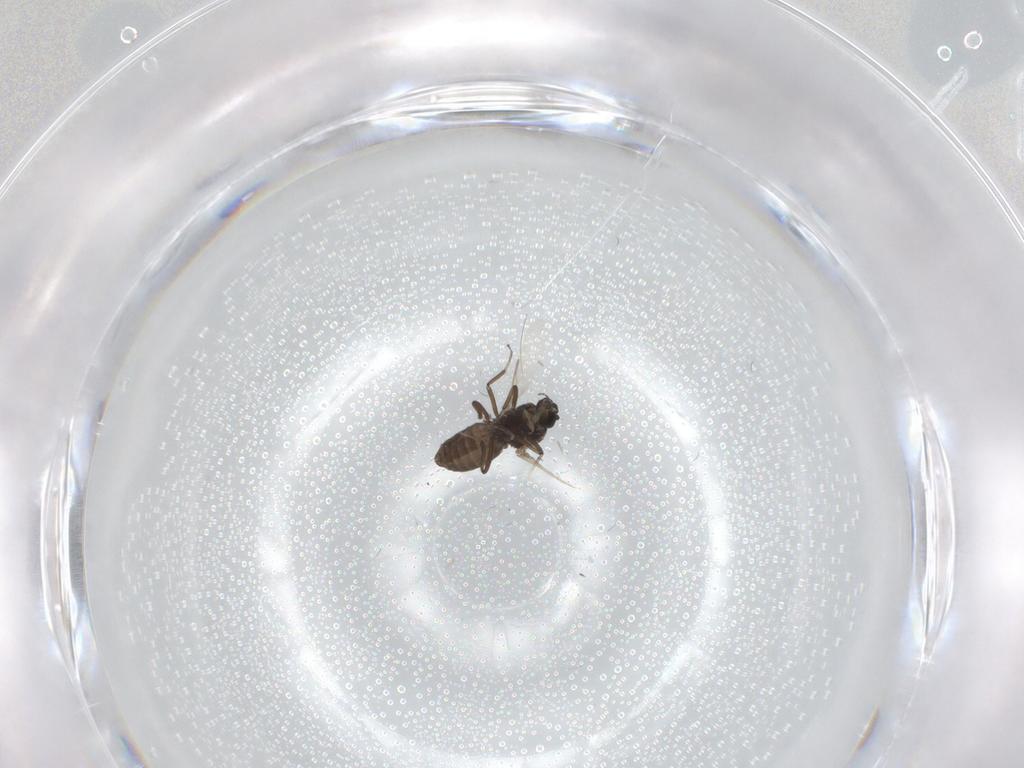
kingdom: Animalia
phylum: Arthropoda
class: Insecta
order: Diptera
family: Ceratopogonidae
